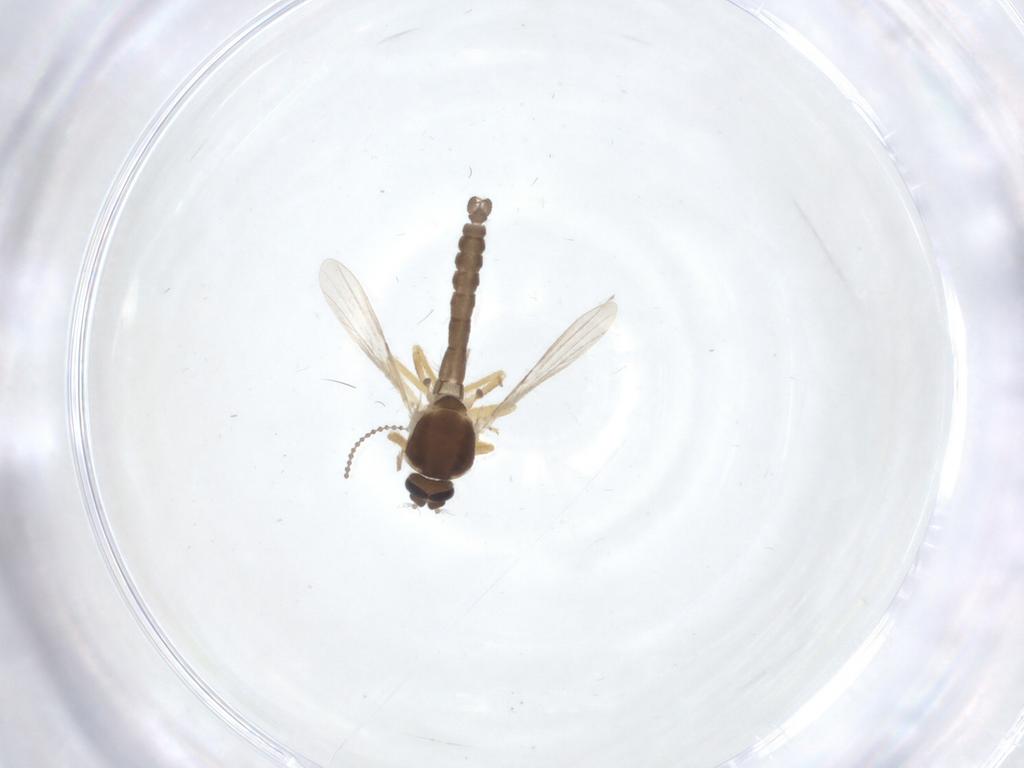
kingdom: Animalia
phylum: Arthropoda
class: Insecta
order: Diptera
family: Ceratopogonidae
